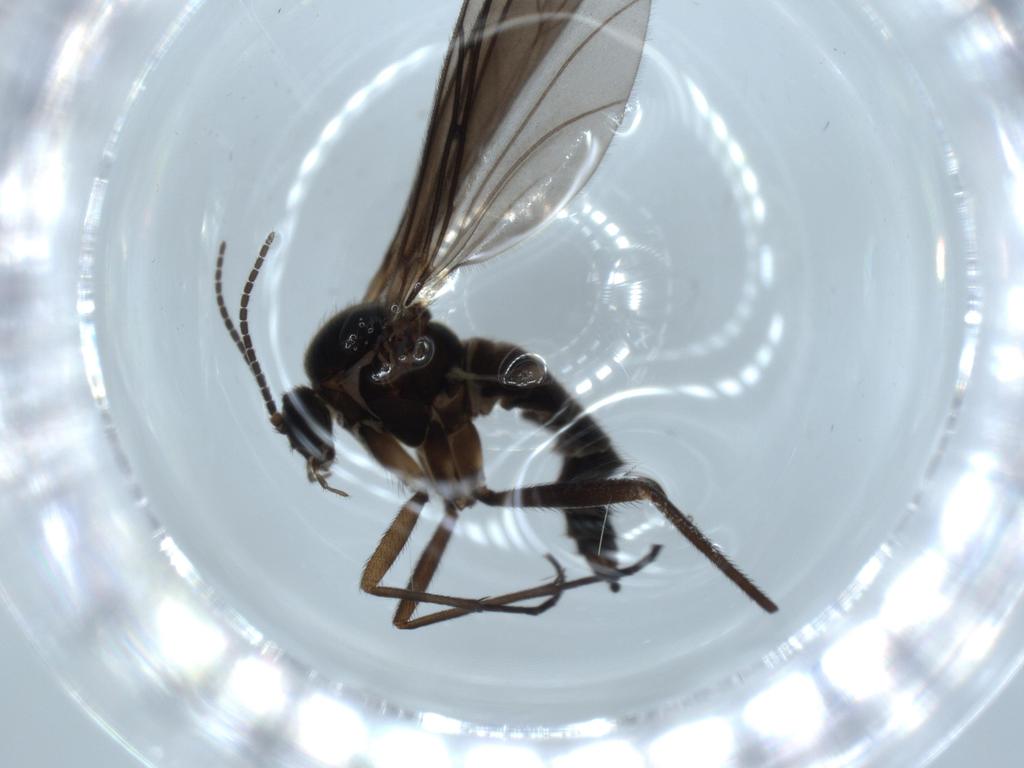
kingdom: Animalia
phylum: Arthropoda
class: Insecta
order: Diptera
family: Sciaridae
